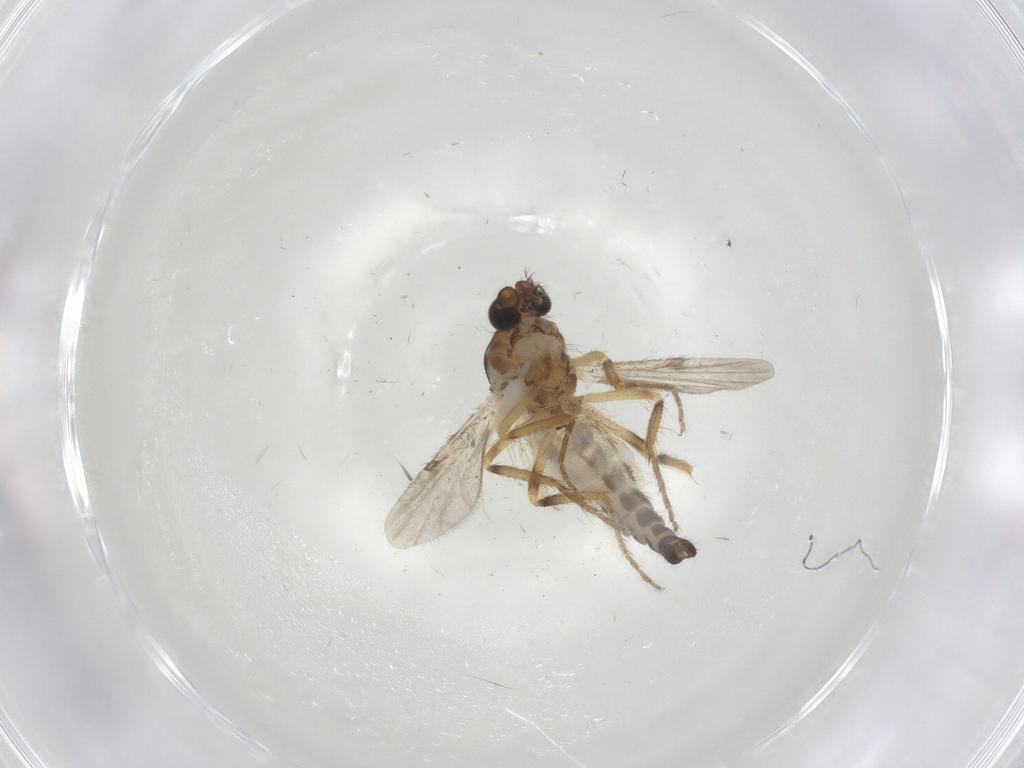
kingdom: Animalia
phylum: Arthropoda
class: Insecta
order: Diptera
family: Ceratopogonidae
